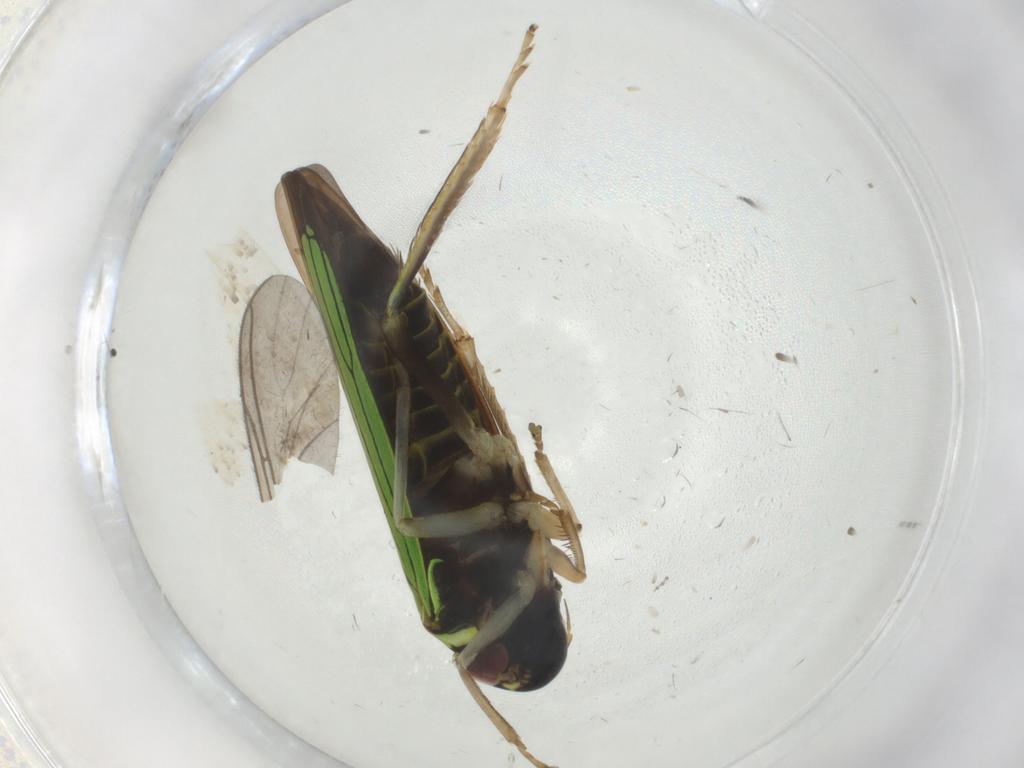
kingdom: Animalia
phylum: Arthropoda
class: Insecta
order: Hemiptera
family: Cicadellidae
